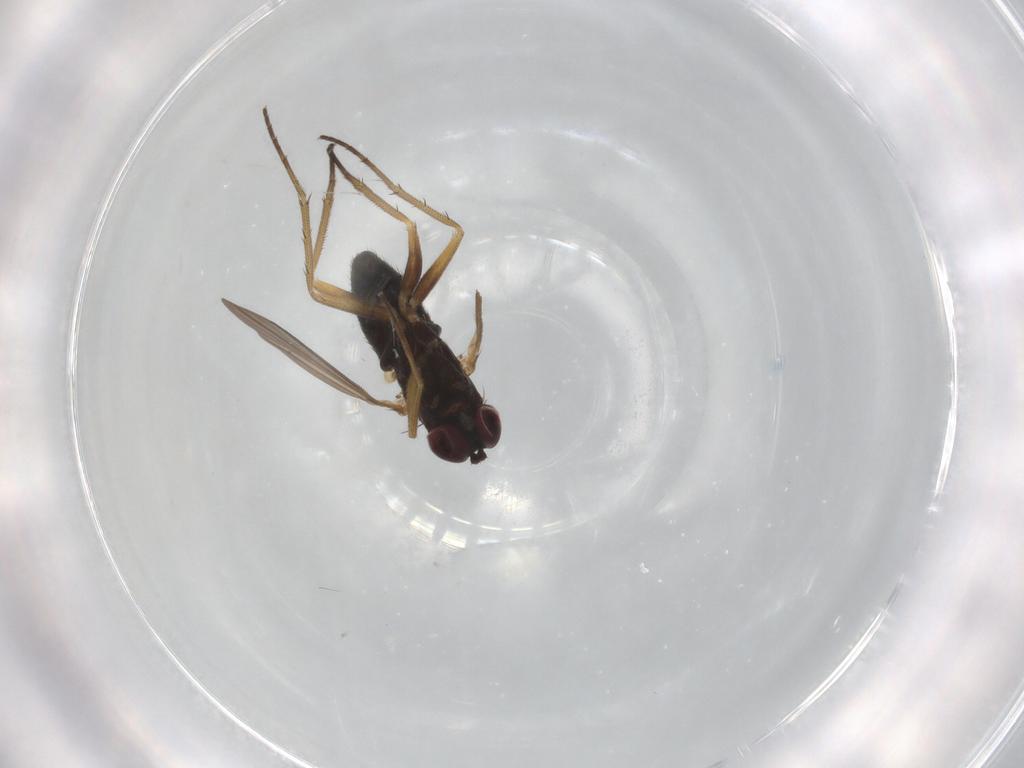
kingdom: Animalia
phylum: Arthropoda
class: Insecta
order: Diptera
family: Dolichopodidae
